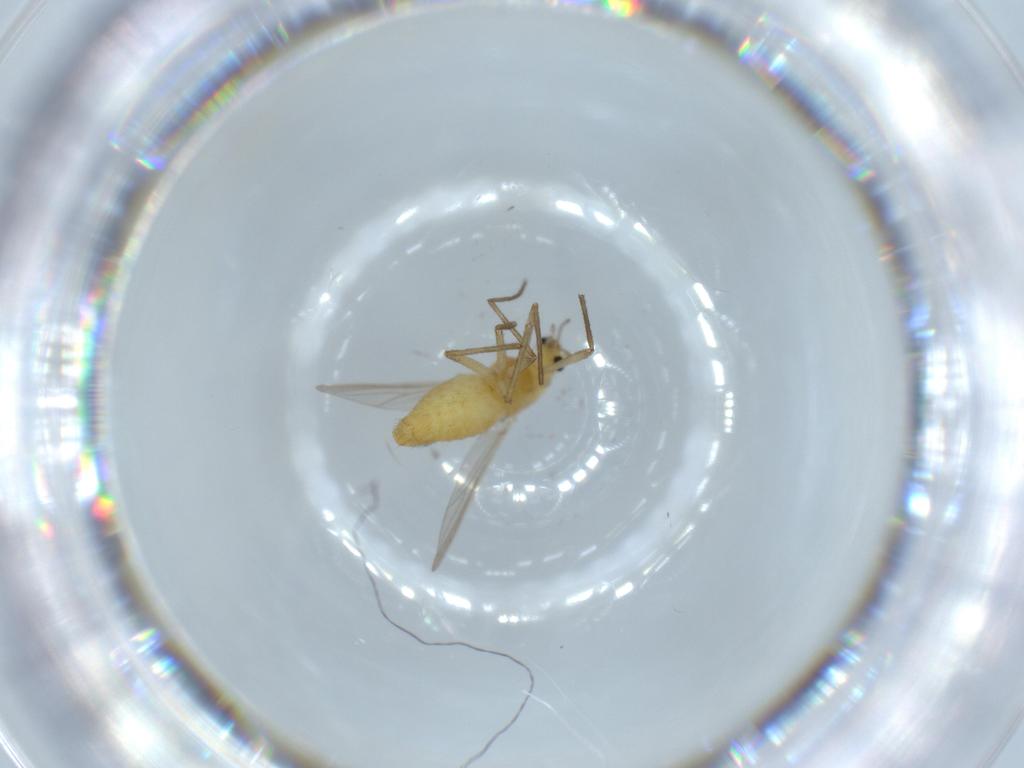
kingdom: Animalia
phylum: Arthropoda
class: Insecta
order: Diptera
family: Chironomidae
